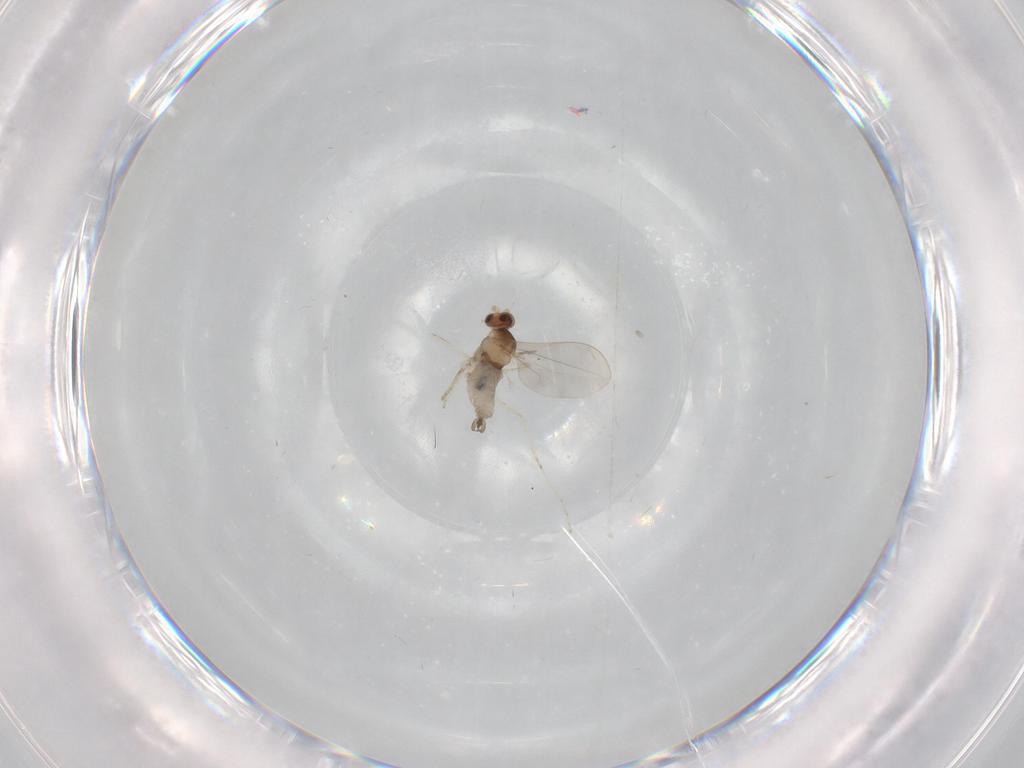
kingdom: Animalia
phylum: Arthropoda
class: Insecta
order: Diptera
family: Cecidomyiidae
